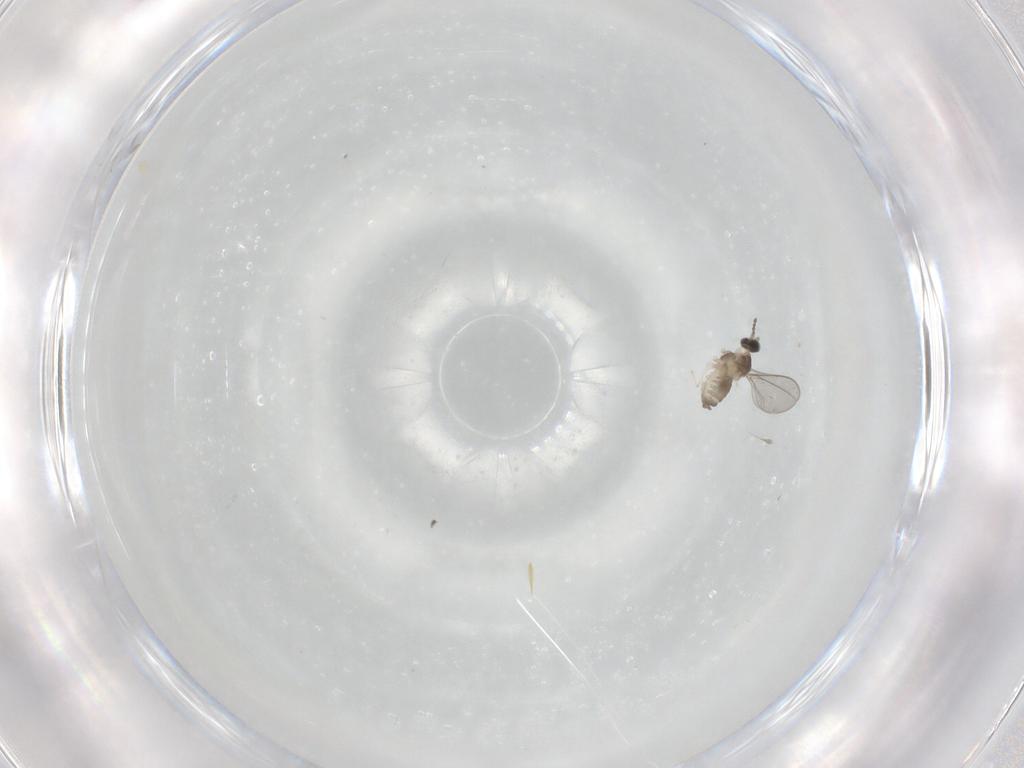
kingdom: Animalia
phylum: Arthropoda
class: Insecta
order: Diptera
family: Cecidomyiidae
